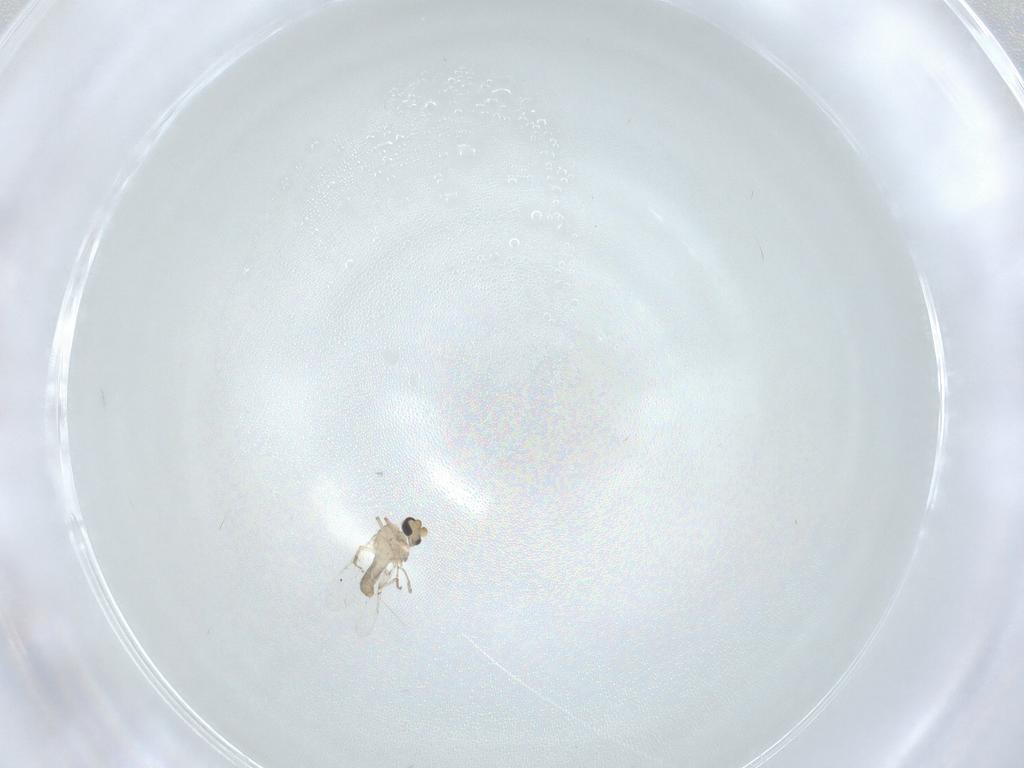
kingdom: Animalia
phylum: Arthropoda
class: Insecta
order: Diptera
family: Ceratopogonidae
